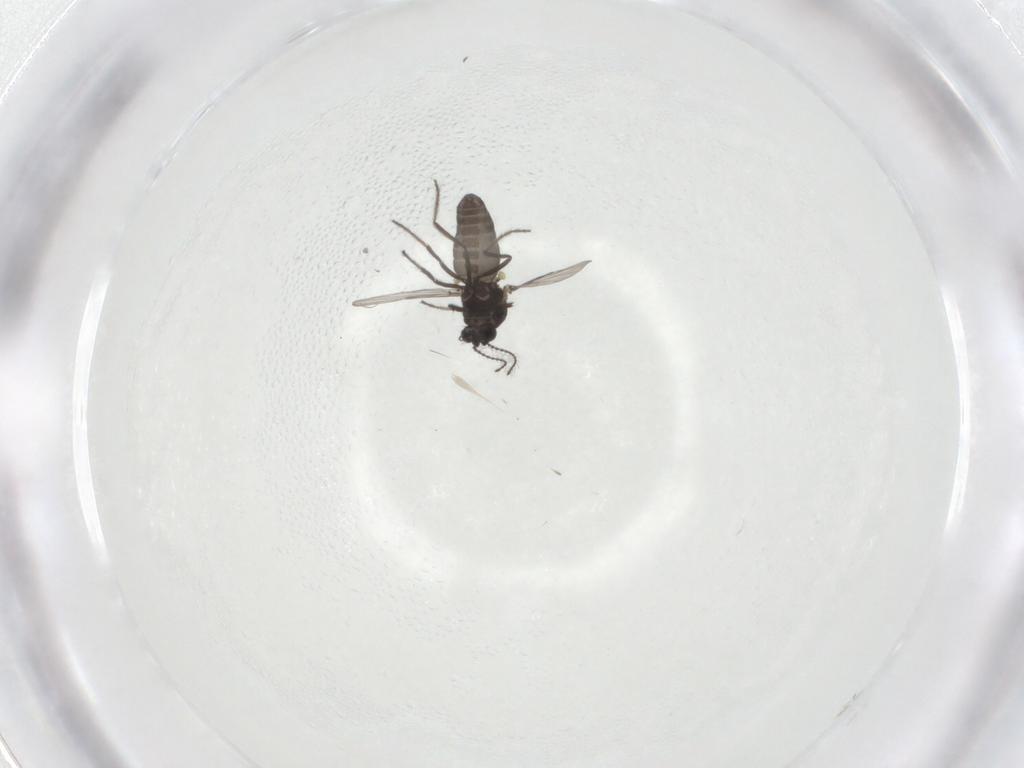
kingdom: Animalia
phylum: Arthropoda
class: Insecta
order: Diptera
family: Ceratopogonidae
